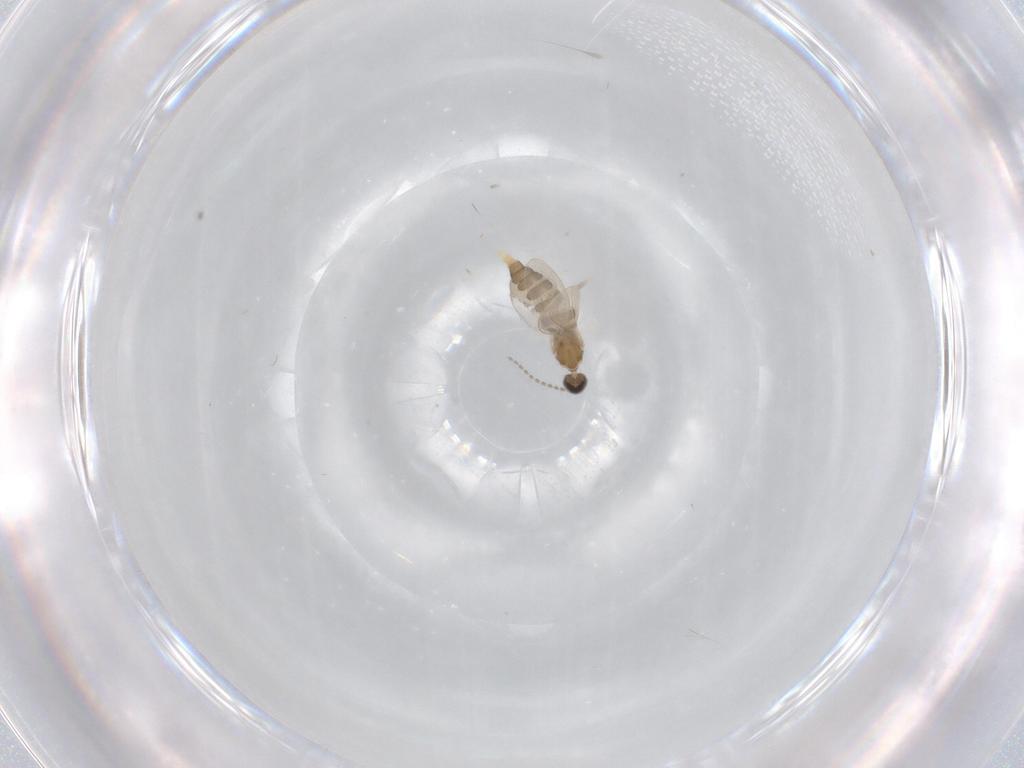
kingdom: Animalia
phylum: Arthropoda
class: Insecta
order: Diptera
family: Cecidomyiidae
